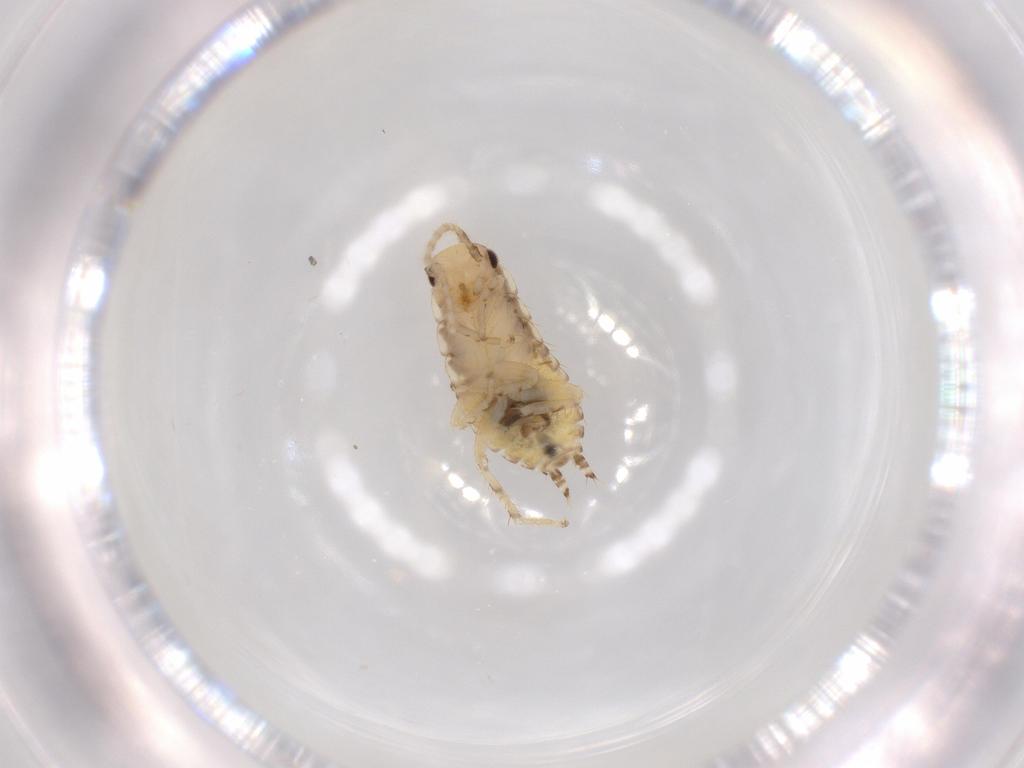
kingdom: Animalia
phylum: Arthropoda
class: Insecta
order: Blattodea
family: Ectobiidae
